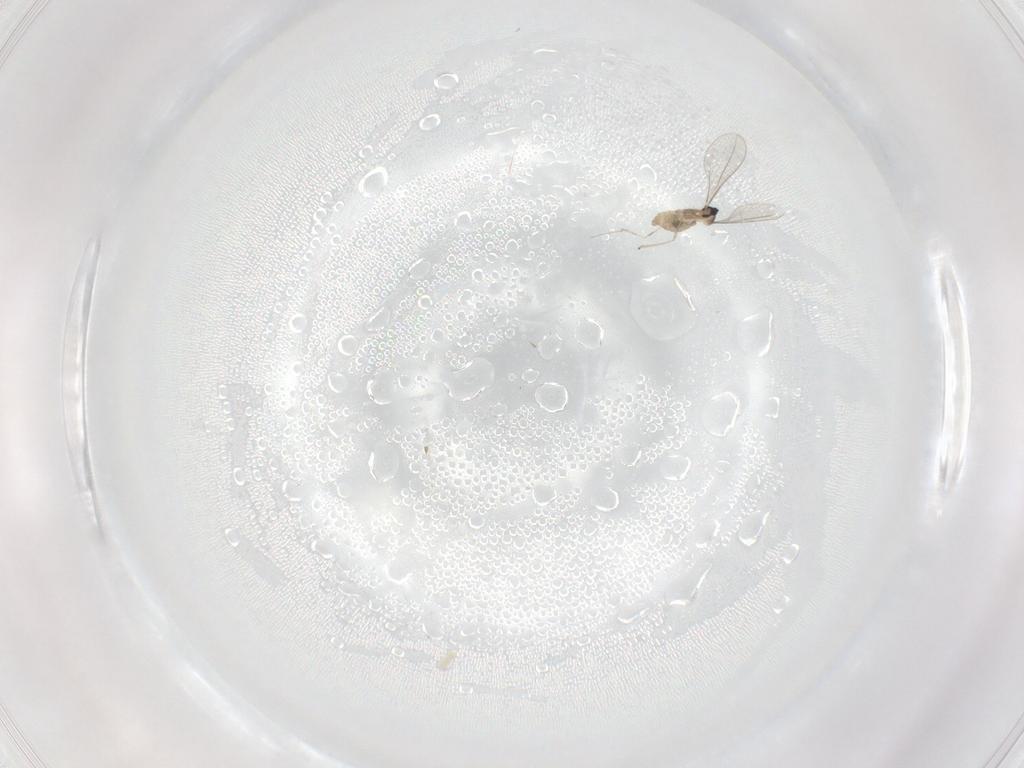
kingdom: Animalia
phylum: Arthropoda
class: Insecta
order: Diptera
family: Cecidomyiidae
